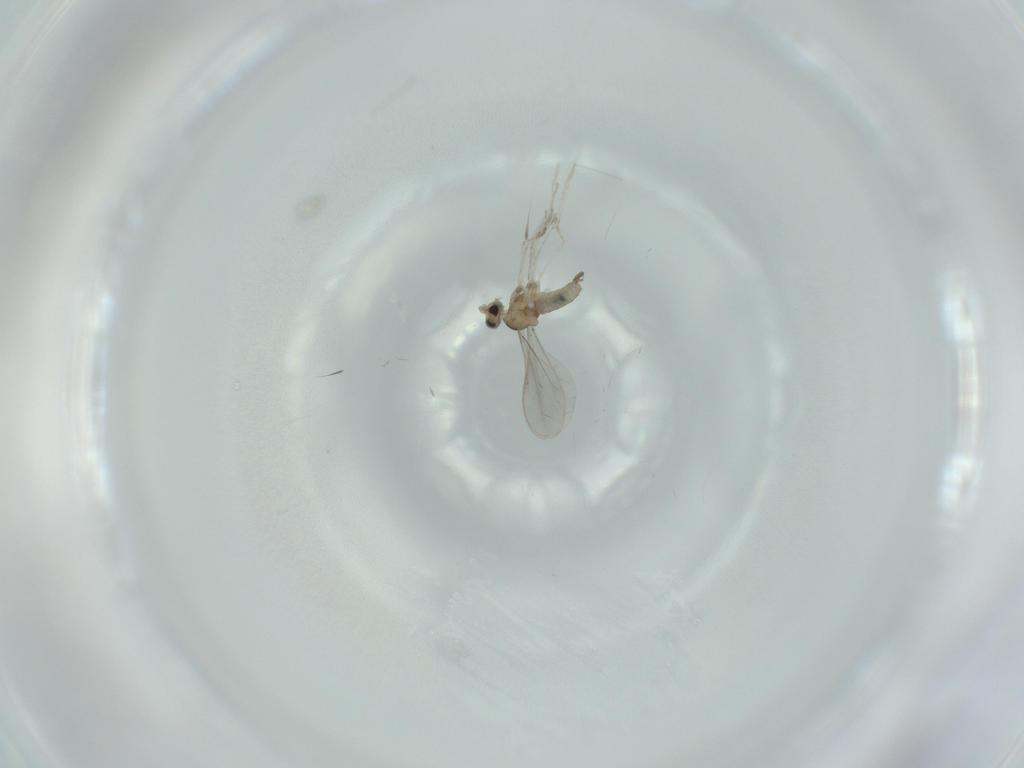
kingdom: Animalia
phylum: Arthropoda
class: Insecta
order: Diptera
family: Cecidomyiidae
